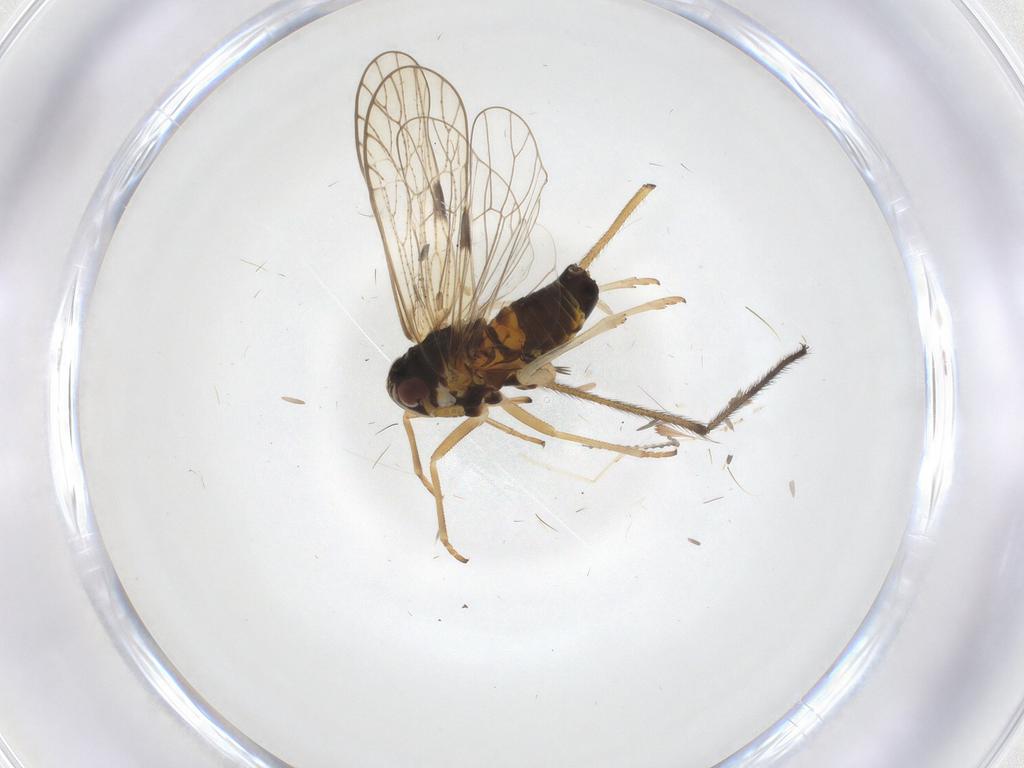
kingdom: Animalia
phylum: Arthropoda
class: Insecta
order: Diptera
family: Limoniidae
